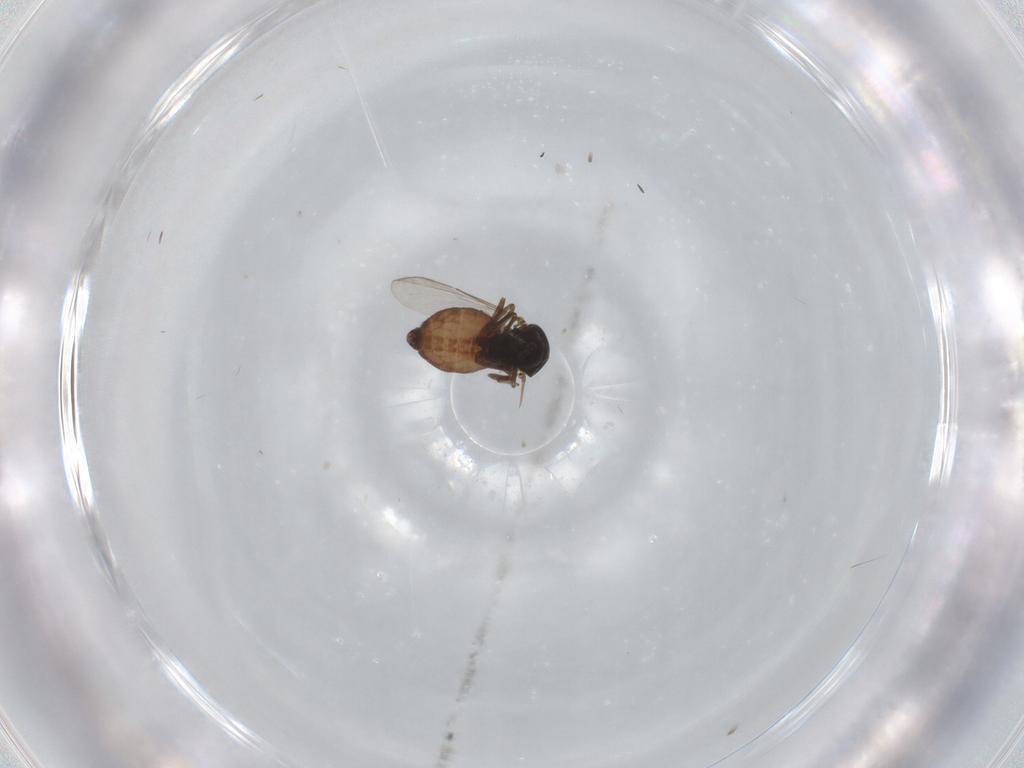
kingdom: Animalia
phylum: Arthropoda
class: Insecta
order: Diptera
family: Ceratopogonidae
